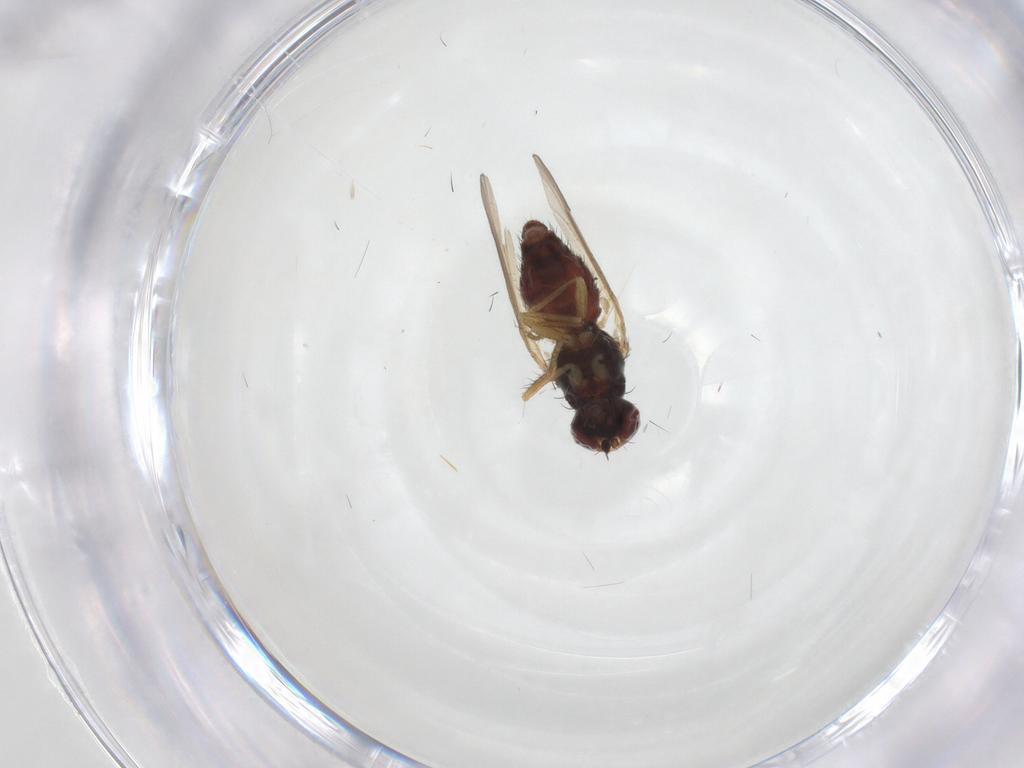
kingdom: Animalia
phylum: Arthropoda
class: Insecta
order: Diptera
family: Heleomyzidae
